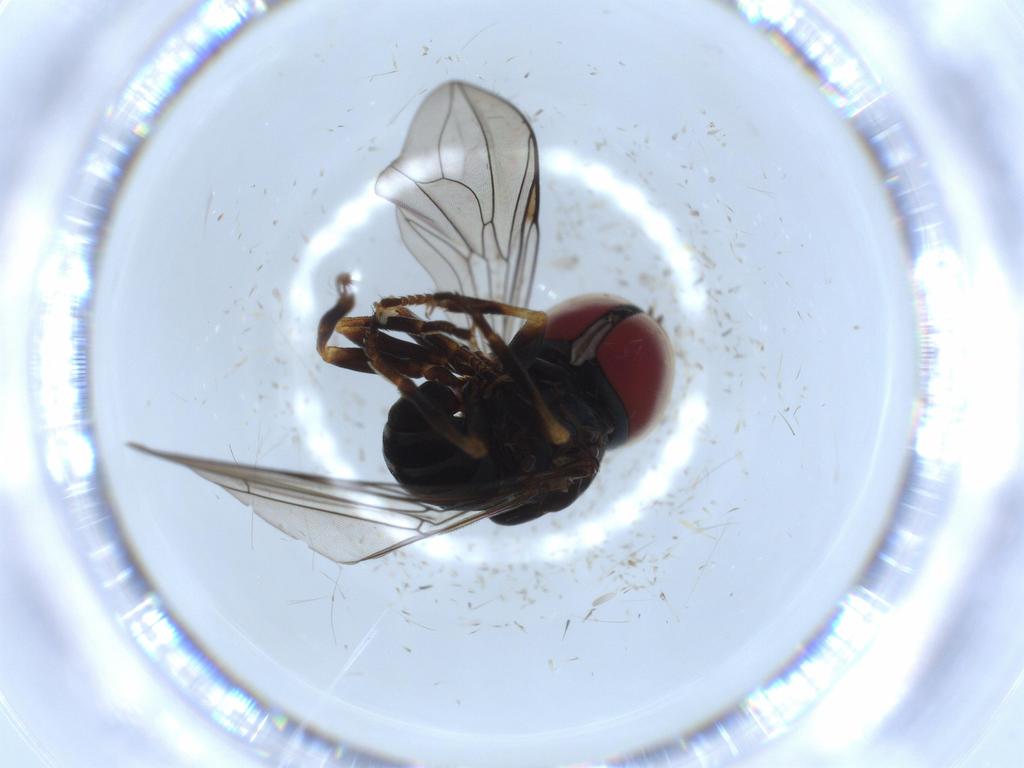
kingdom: Animalia
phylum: Arthropoda
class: Insecta
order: Diptera
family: Pipunculidae
